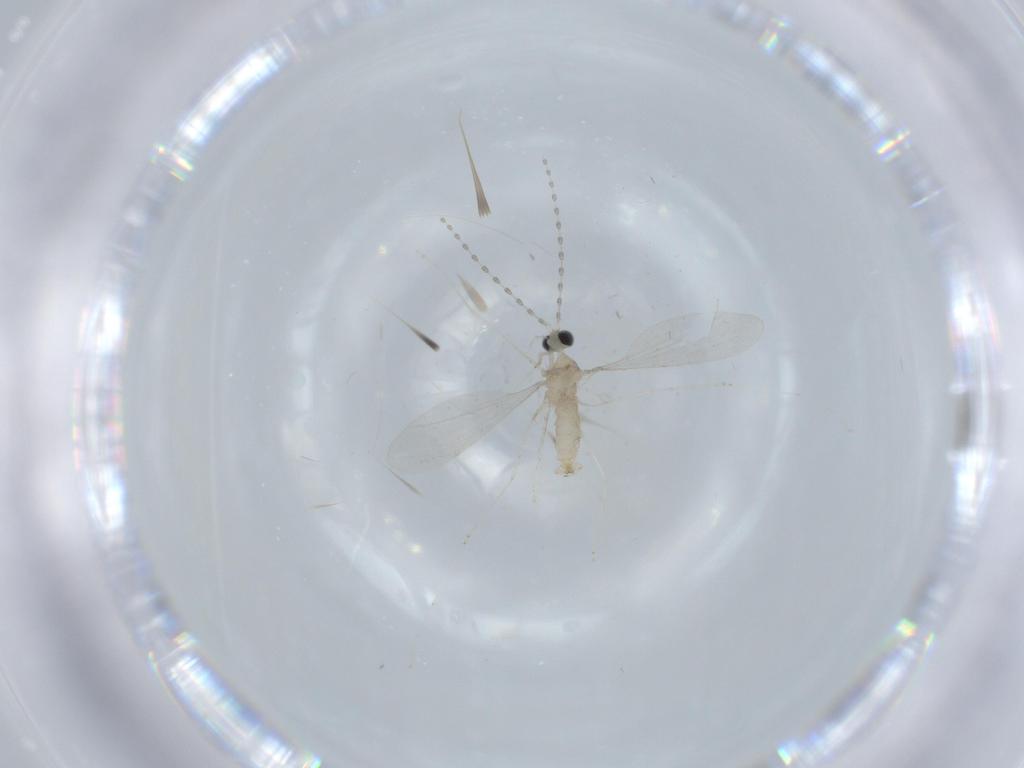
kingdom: Animalia
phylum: Arthropoda
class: Insecta
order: Diptera
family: Cecidomyiidae
